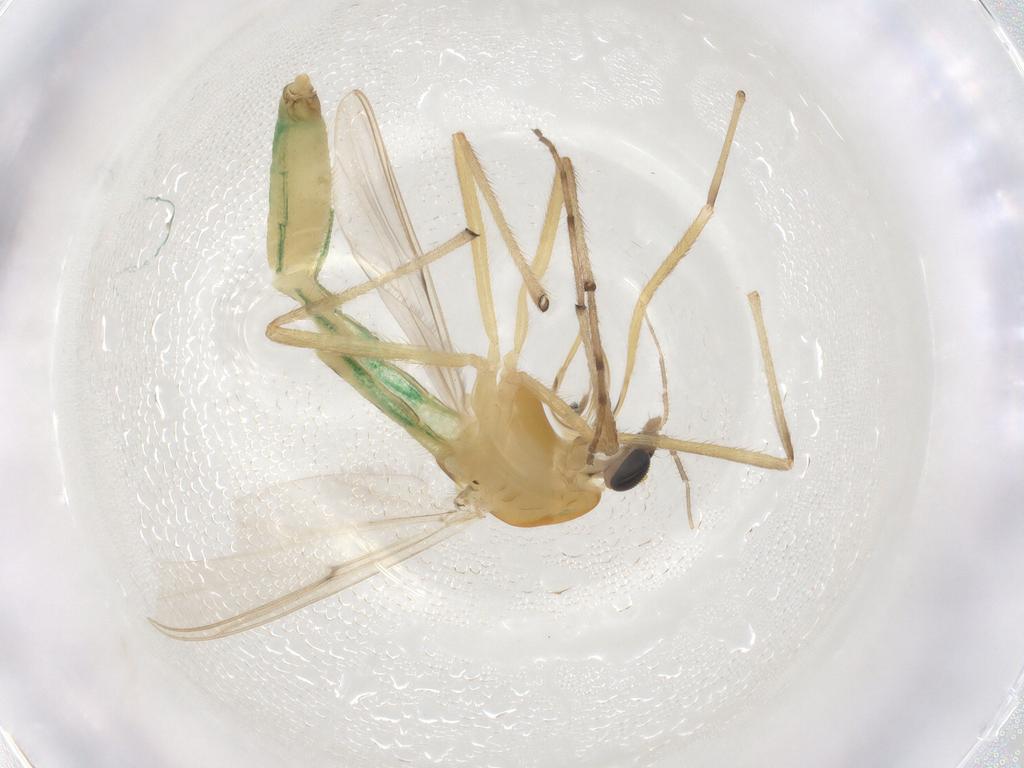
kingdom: Animalia
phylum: Arthropoda
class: Insecta
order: Diptera
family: Chironomidae
